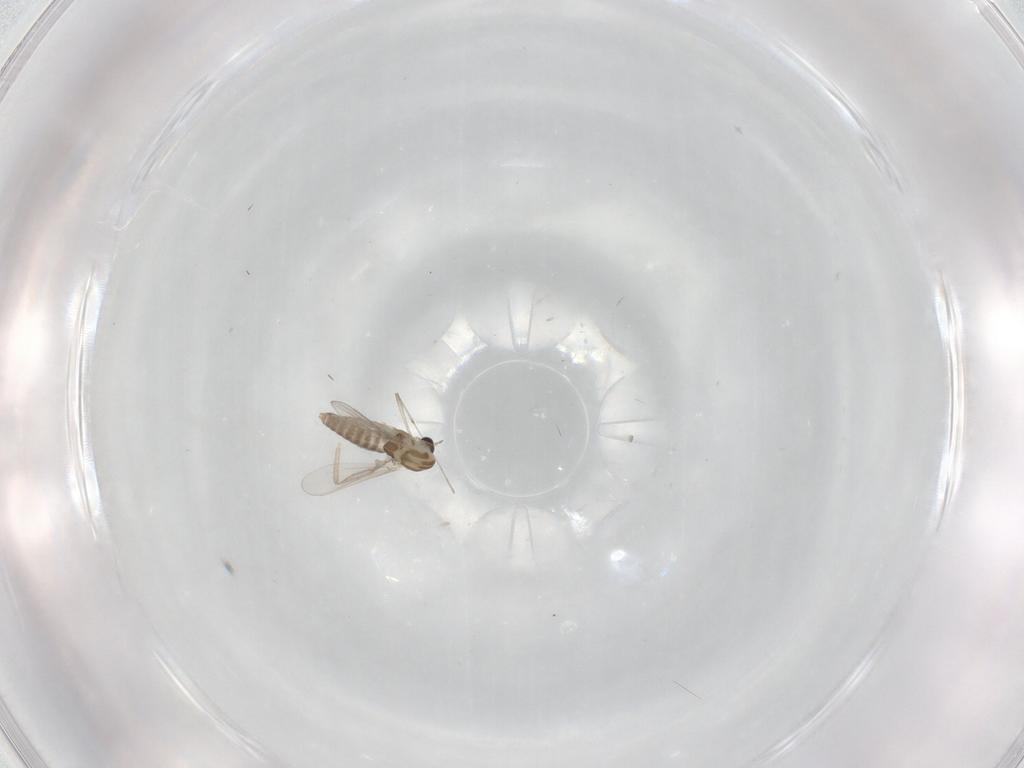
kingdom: Animalia
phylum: Arthropoda
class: Insecta
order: Diptera
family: Chironomidae
